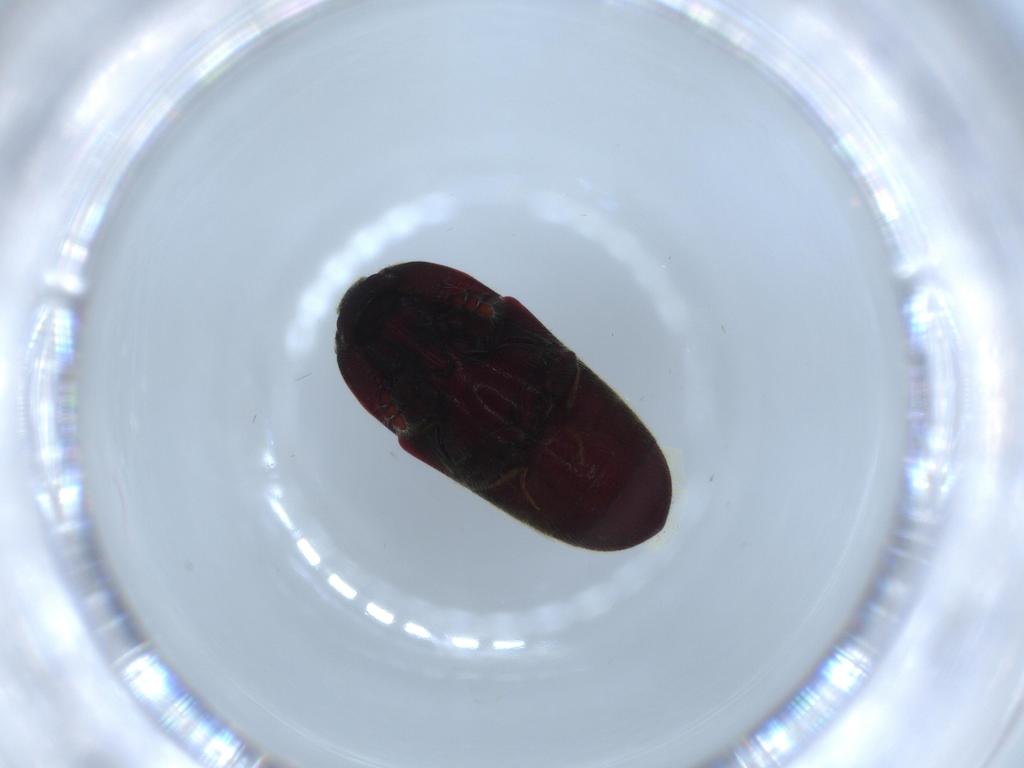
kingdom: Animalia
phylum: Arthropoda
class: Insecta
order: Coleoptera
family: Throscidae
